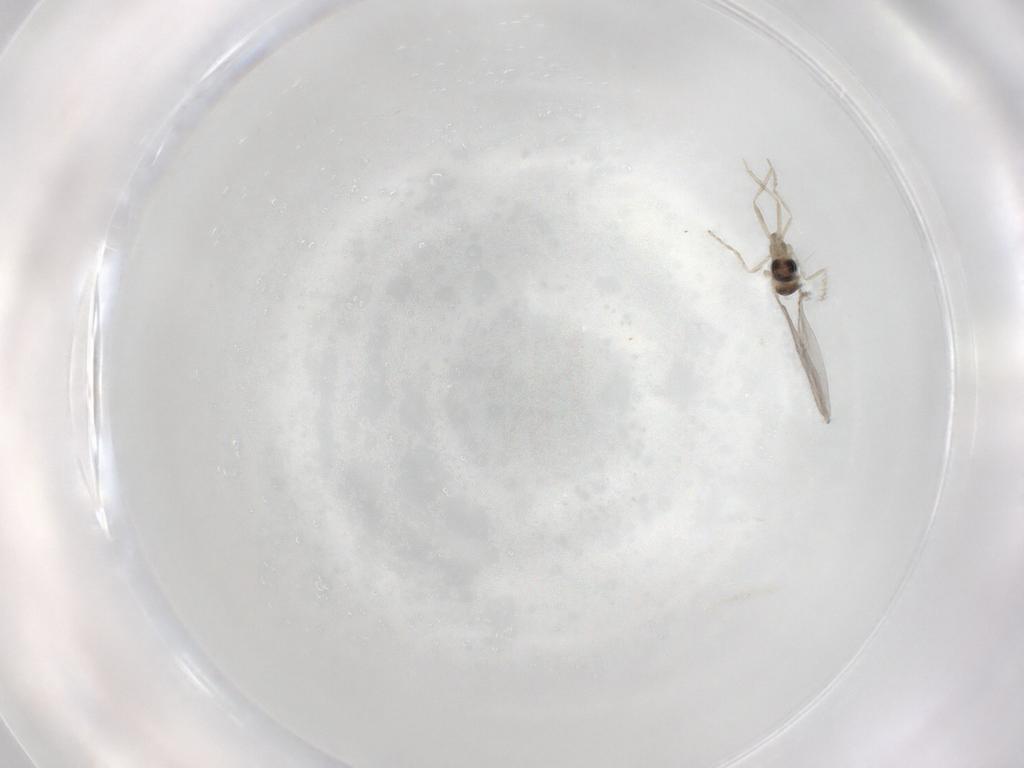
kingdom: Animalia
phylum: Arthropoda
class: Insecta
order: Diptera
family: Cecidomyiidae
